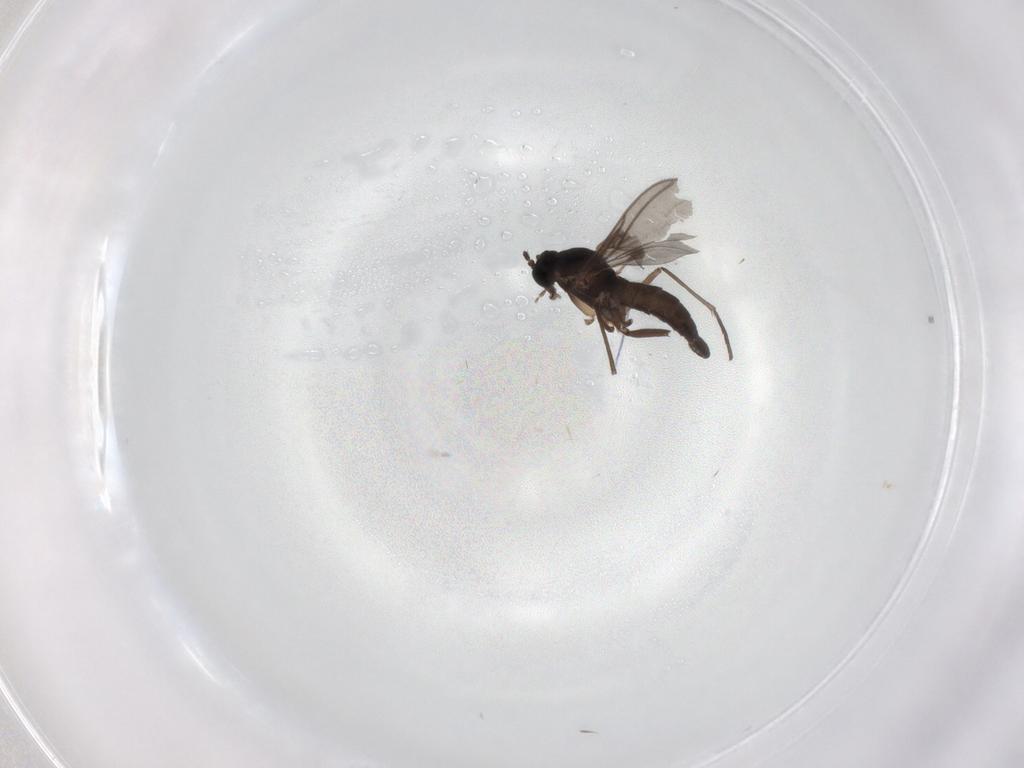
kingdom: Animalia
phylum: Arthropoda
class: Insecta
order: Diptera
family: Sciaridae
